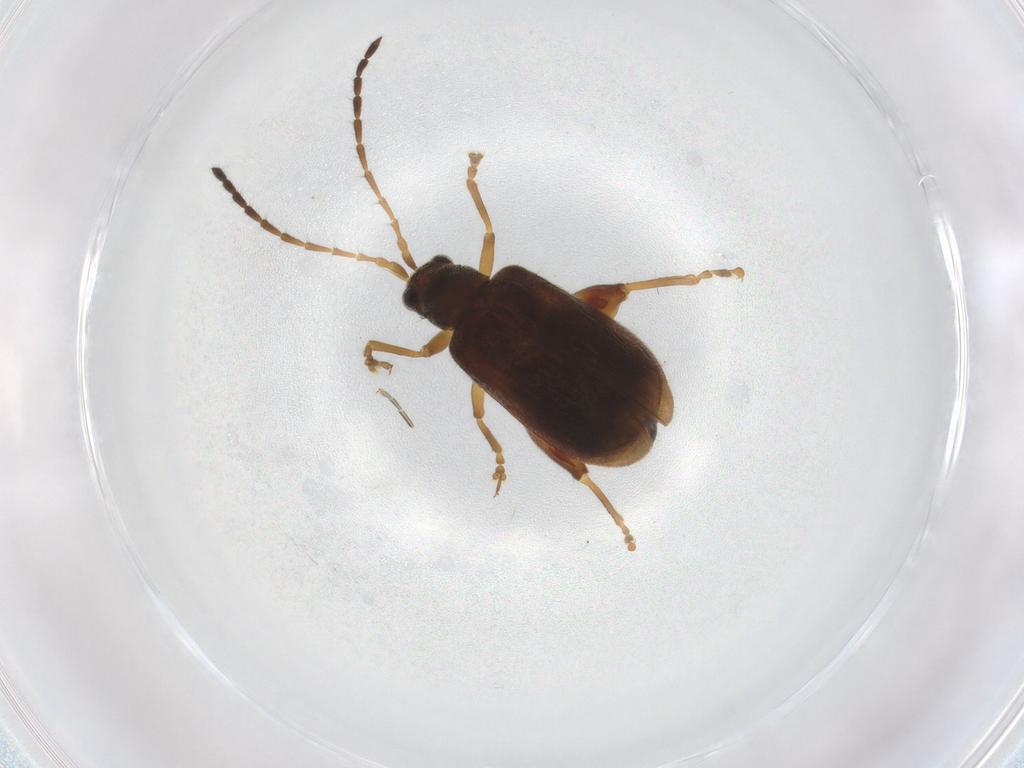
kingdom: Animalia
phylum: Arthropoda
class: Insecta
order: Coleoptera
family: Chrysomelidae
